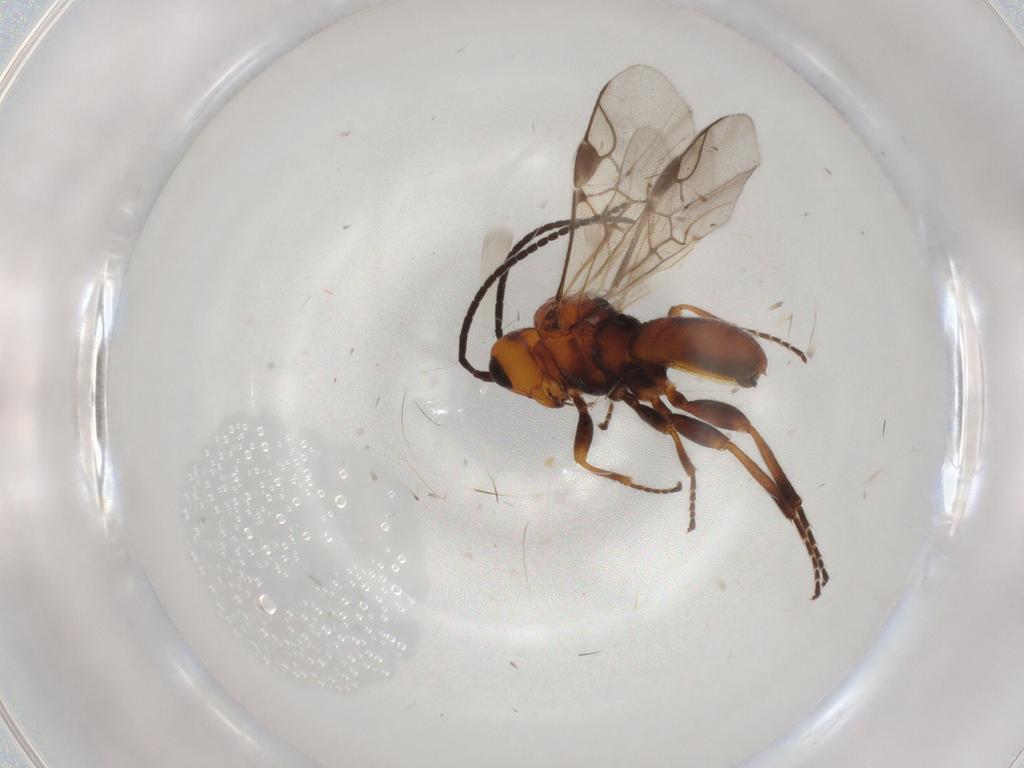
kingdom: Animalia
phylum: Arthropoda
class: Insecta
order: Hymenoptera
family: Braconidae
